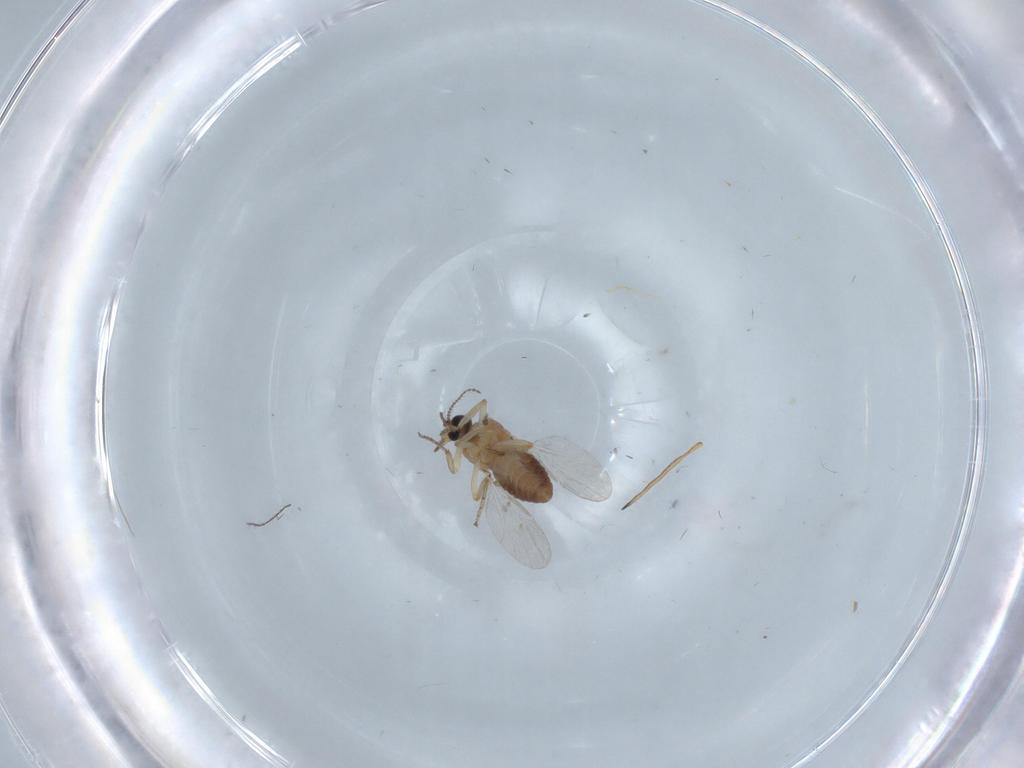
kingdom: Animalia
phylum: Arthropoda
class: Insecta
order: Diptera
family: Ceratopogonidae
